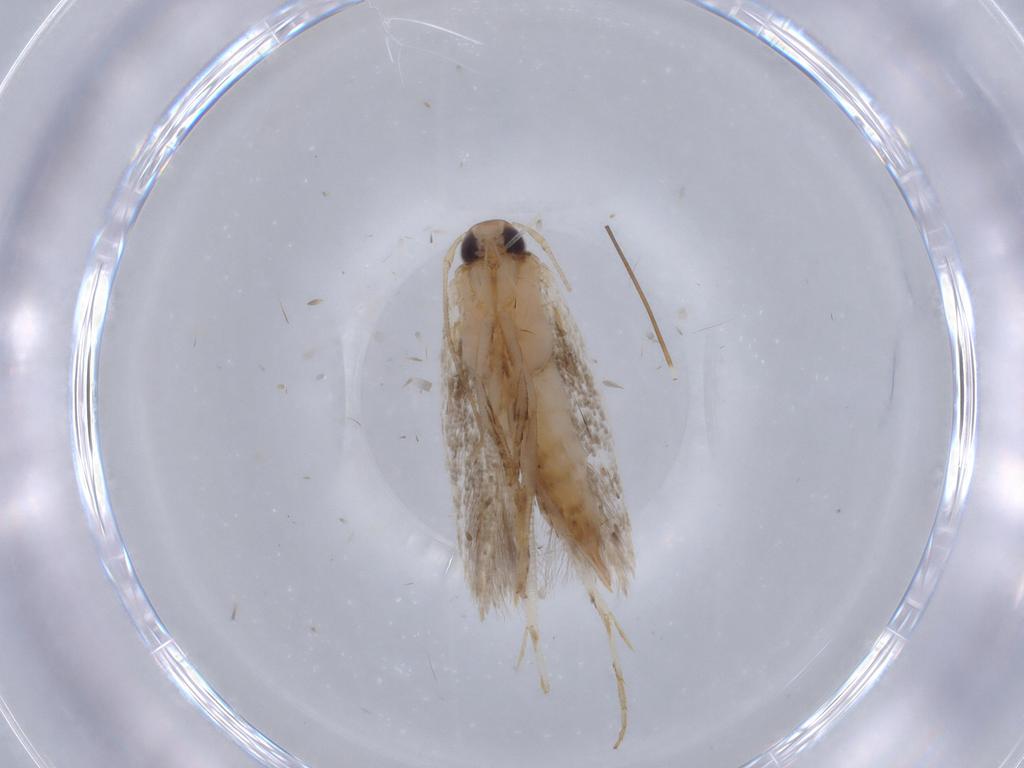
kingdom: Animalia
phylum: Arthropoda
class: Insecta
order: Lepidoptera
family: Erebidae
